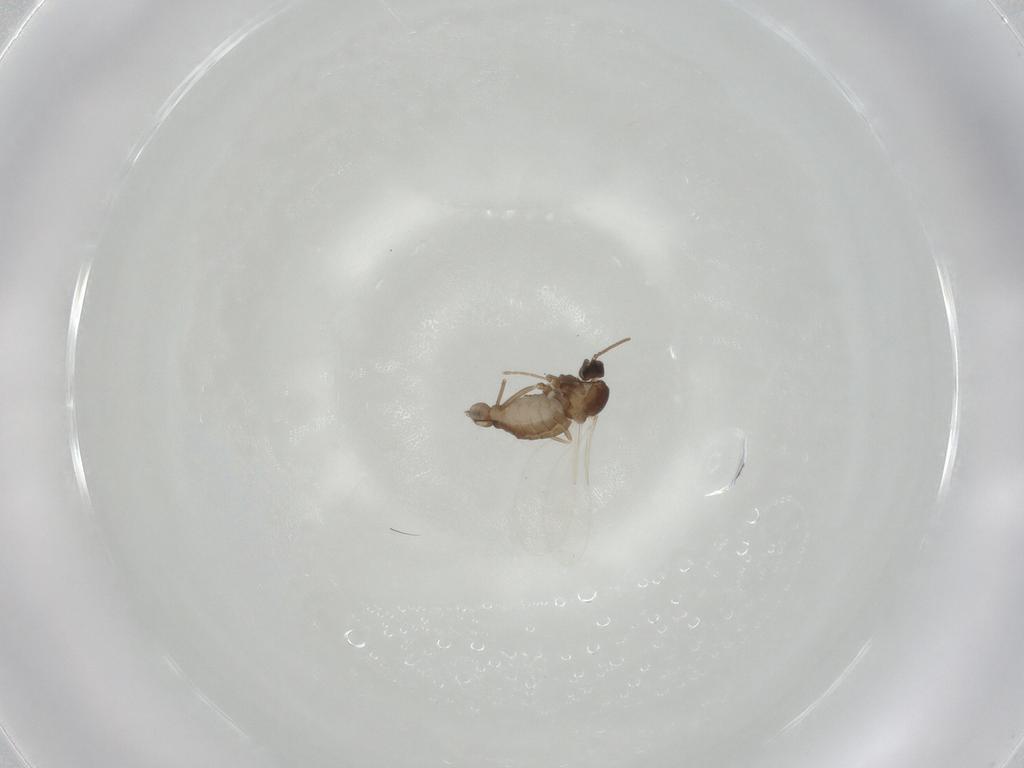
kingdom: Animalia
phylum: Arthropoda
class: Insecta
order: Diptera
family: Cecidomyiidae
